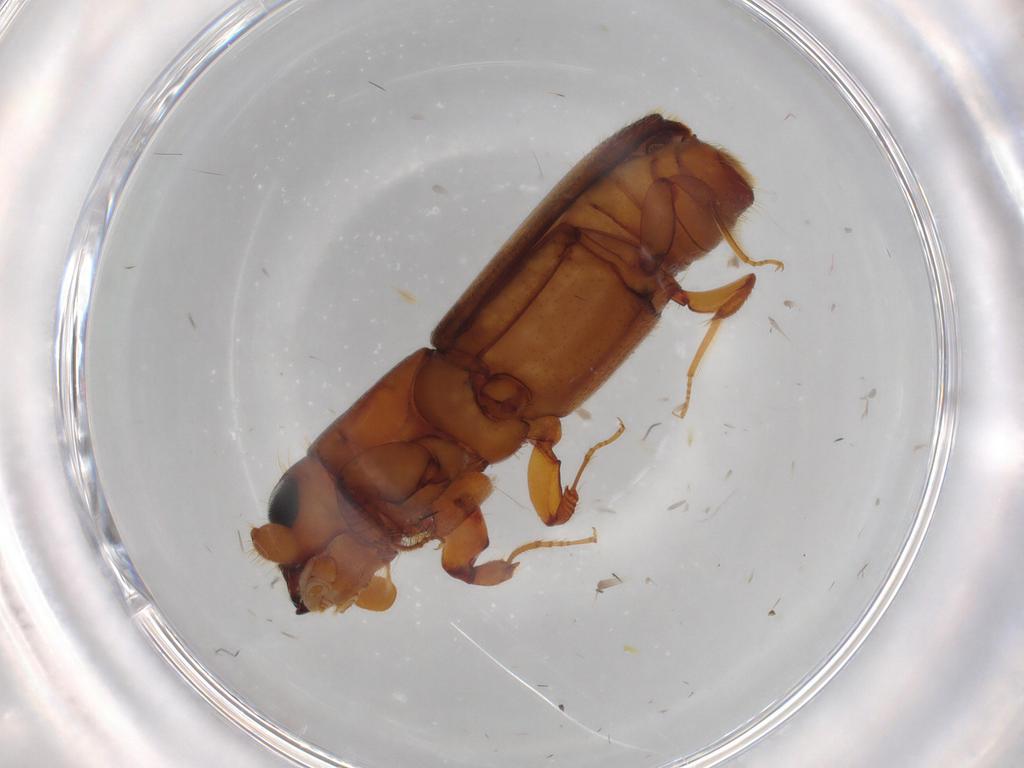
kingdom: Animalia
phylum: Arthropoda
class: Insecta
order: Coleoptera
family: Curculionidae
